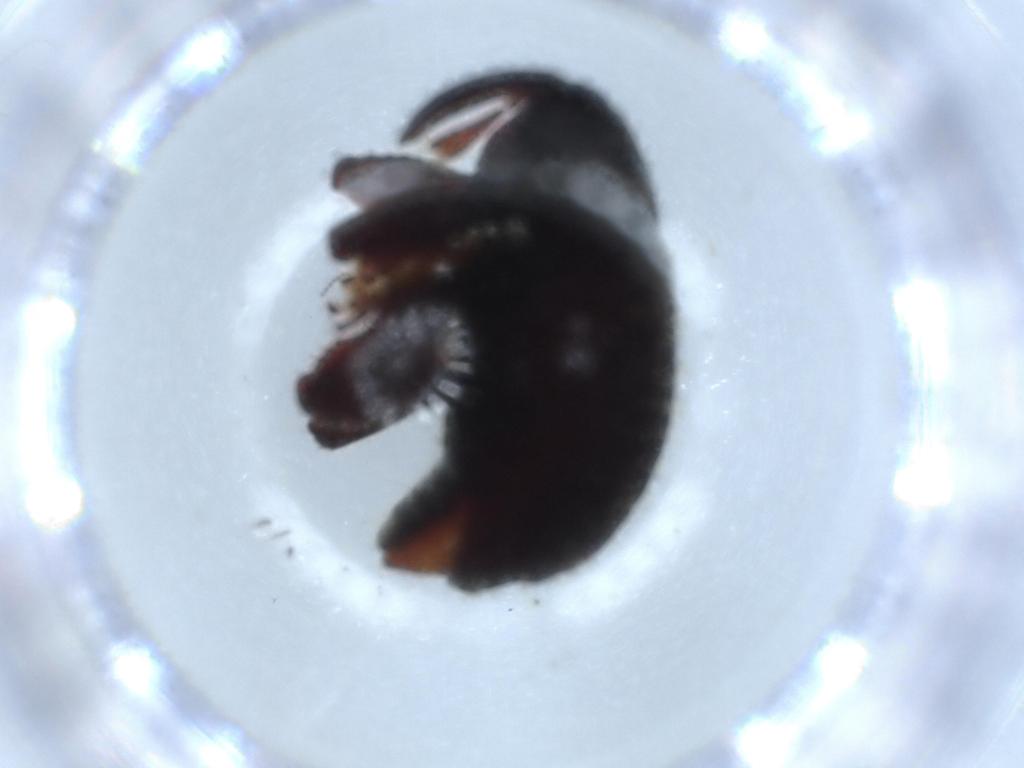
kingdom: Animalia
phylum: Arthropoda
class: Insecta
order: Coleoptera
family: Lampyridae
